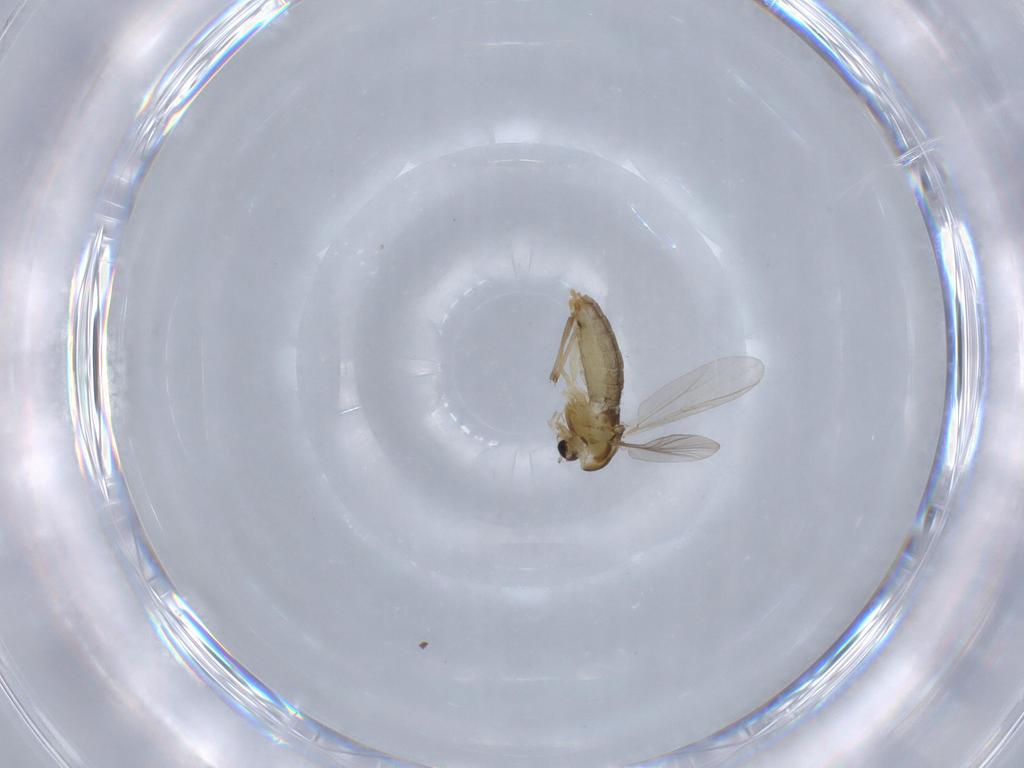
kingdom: Animalia
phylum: Arthropoda
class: Insecta
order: Diptera
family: Chironomidae
